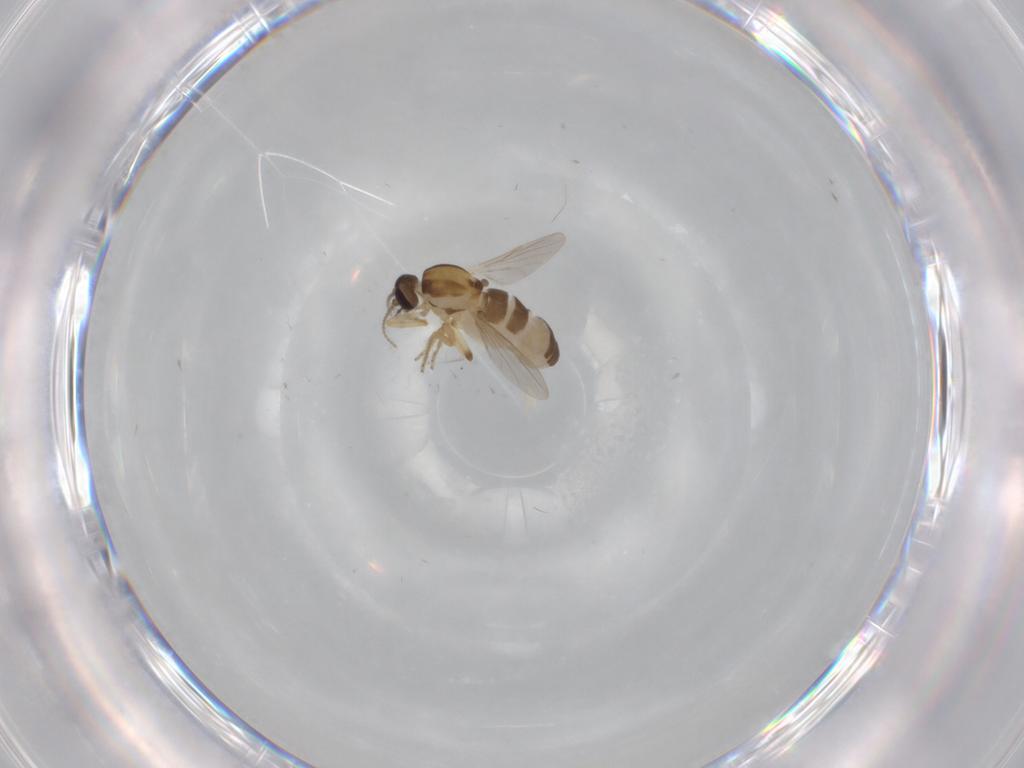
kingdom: Animalia
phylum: Arthropoda
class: Insecta
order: Diptera
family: Ceratopogonidae
